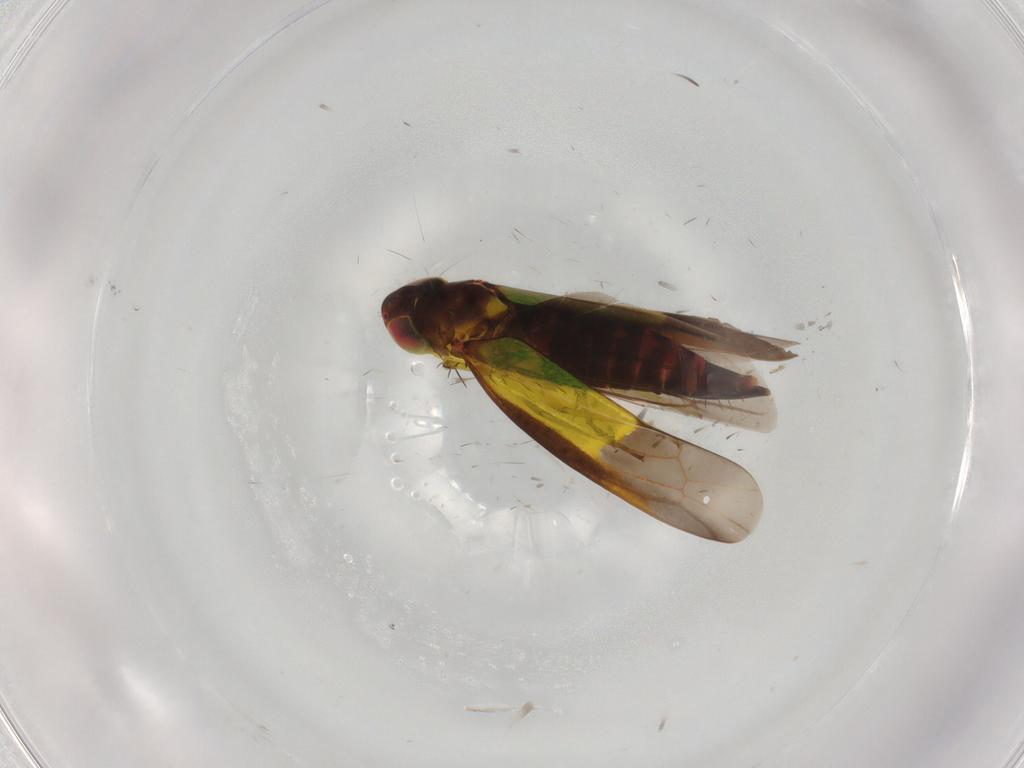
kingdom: Animalia
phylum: Arthropoda
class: Insecta
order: Hemiptera
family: Cicadellidae
